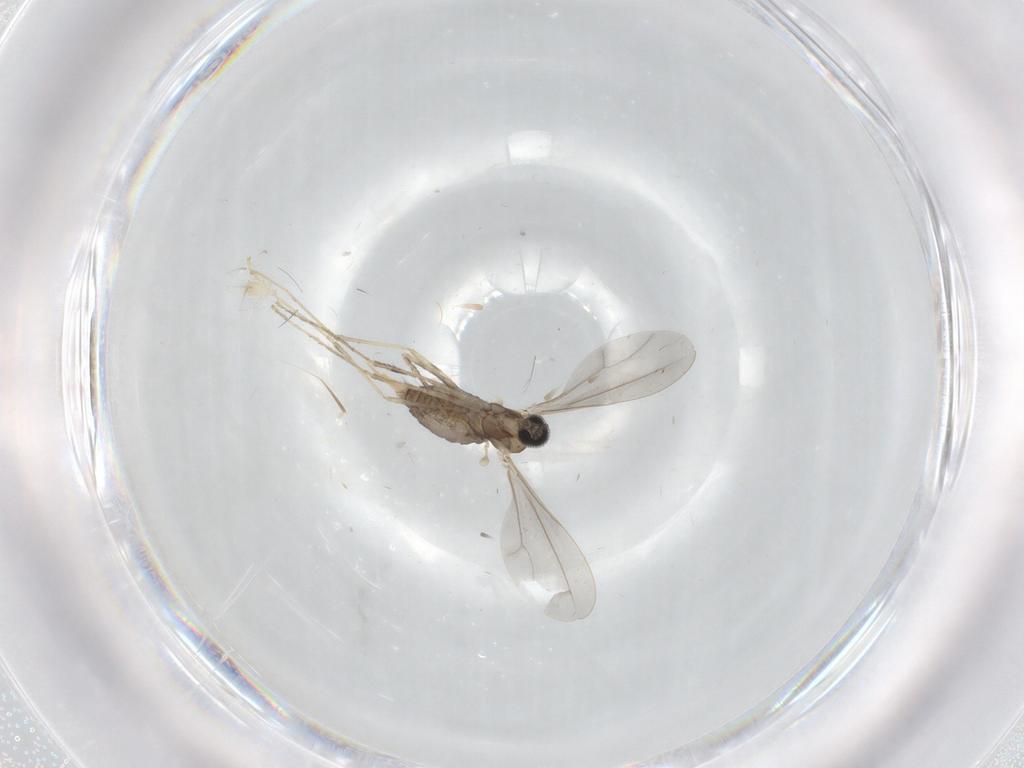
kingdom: Animalia
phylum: Arthropoda
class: Insecta
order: Diptera
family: Cecidomyiidae
